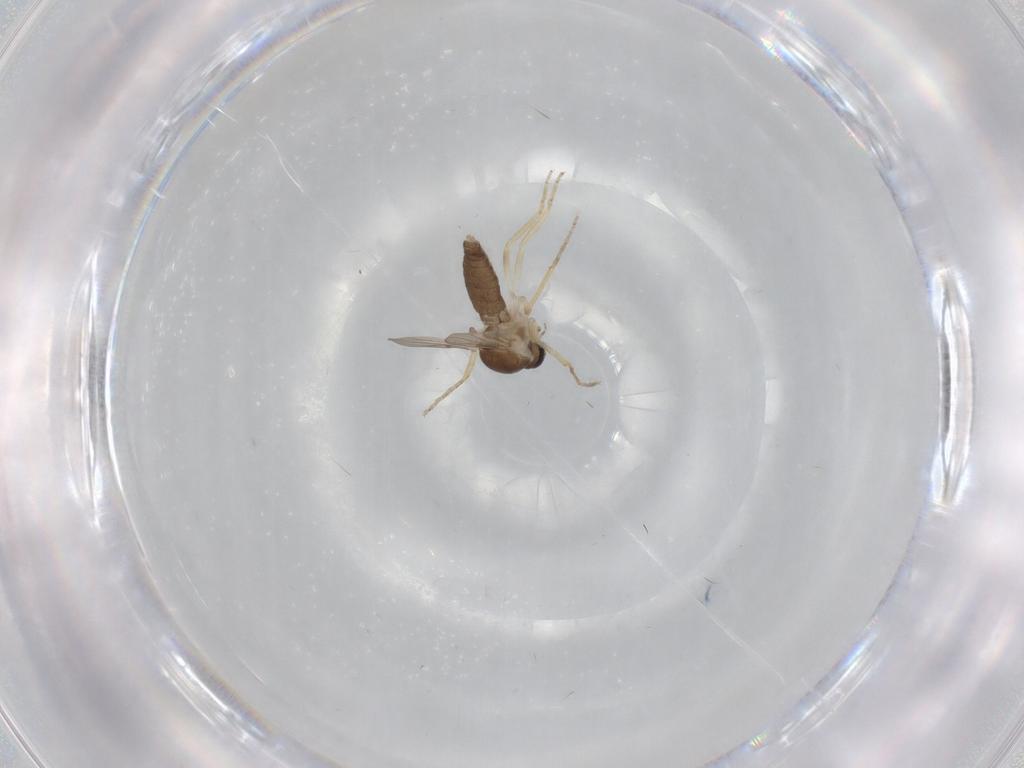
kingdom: Animalia
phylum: Arthropoda
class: Insecta
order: Diptera
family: Ceratopogonidae
